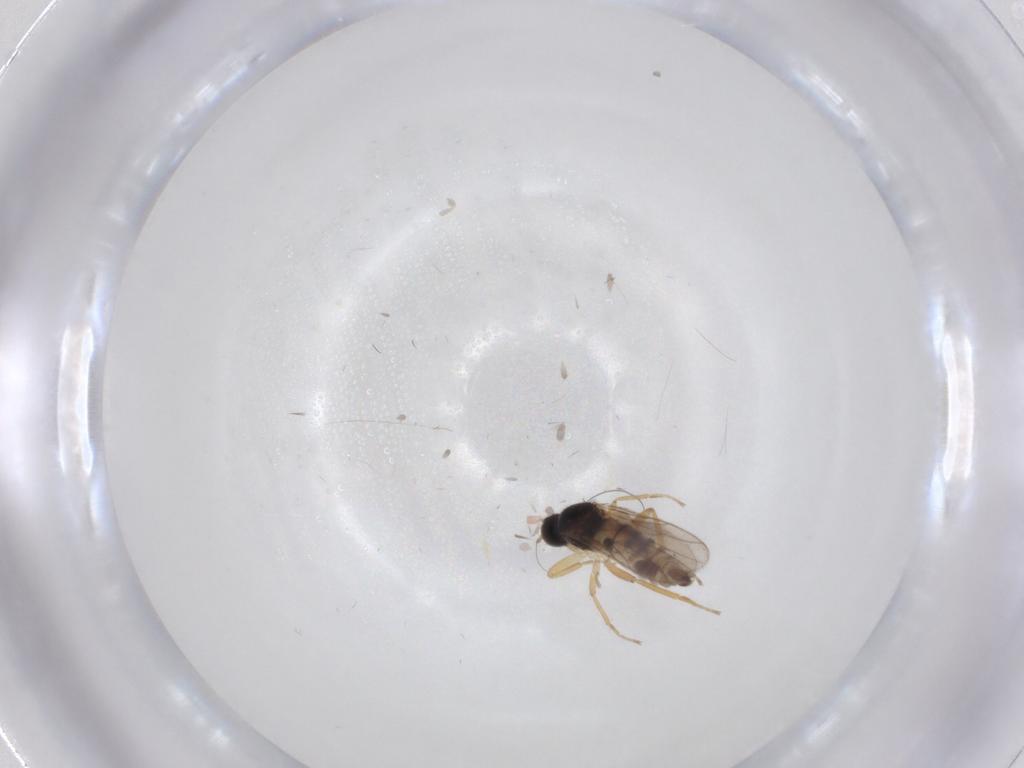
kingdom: Animalia
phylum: Arthropoda
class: Insecta
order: Diptera
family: Hybotidae
